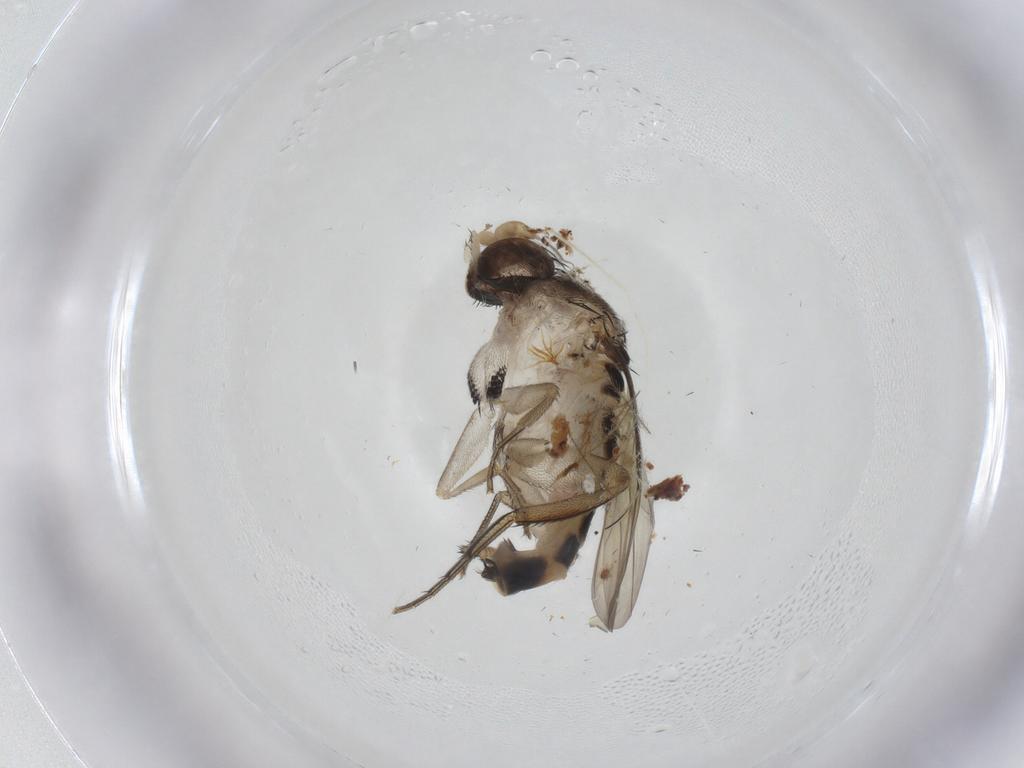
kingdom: Animalia
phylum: Arthropoda
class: Insecta
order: Diptera
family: Phoridae
